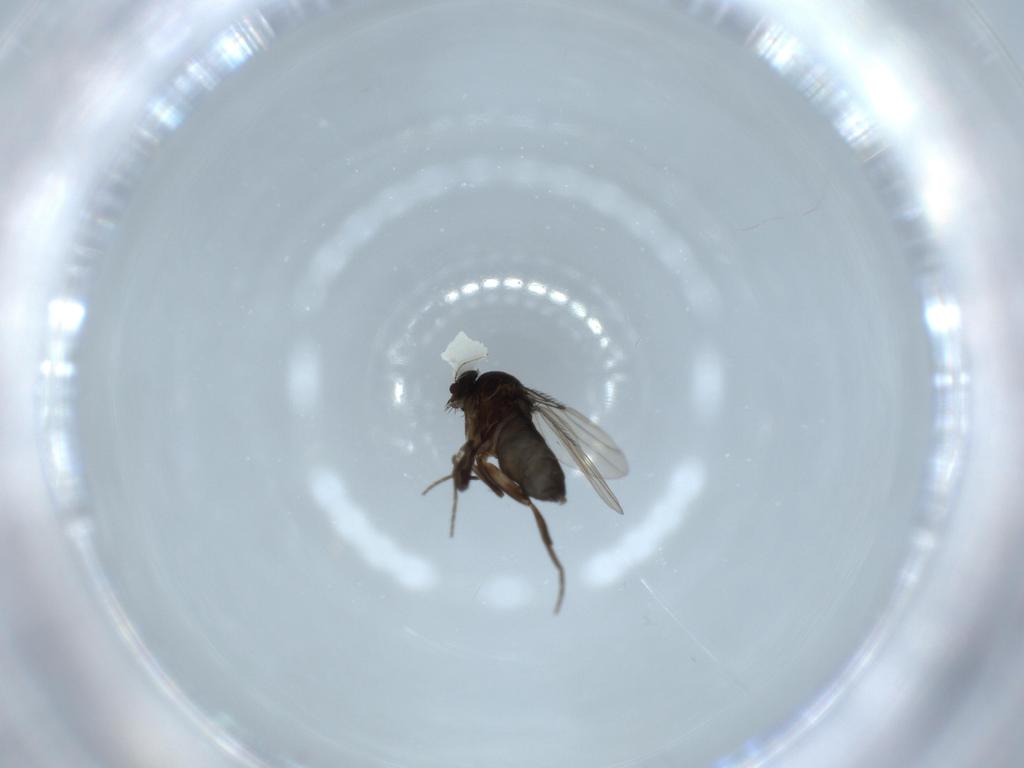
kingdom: Animalia
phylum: Arthropoda
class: Insecta
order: Diptera
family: Phoridae
